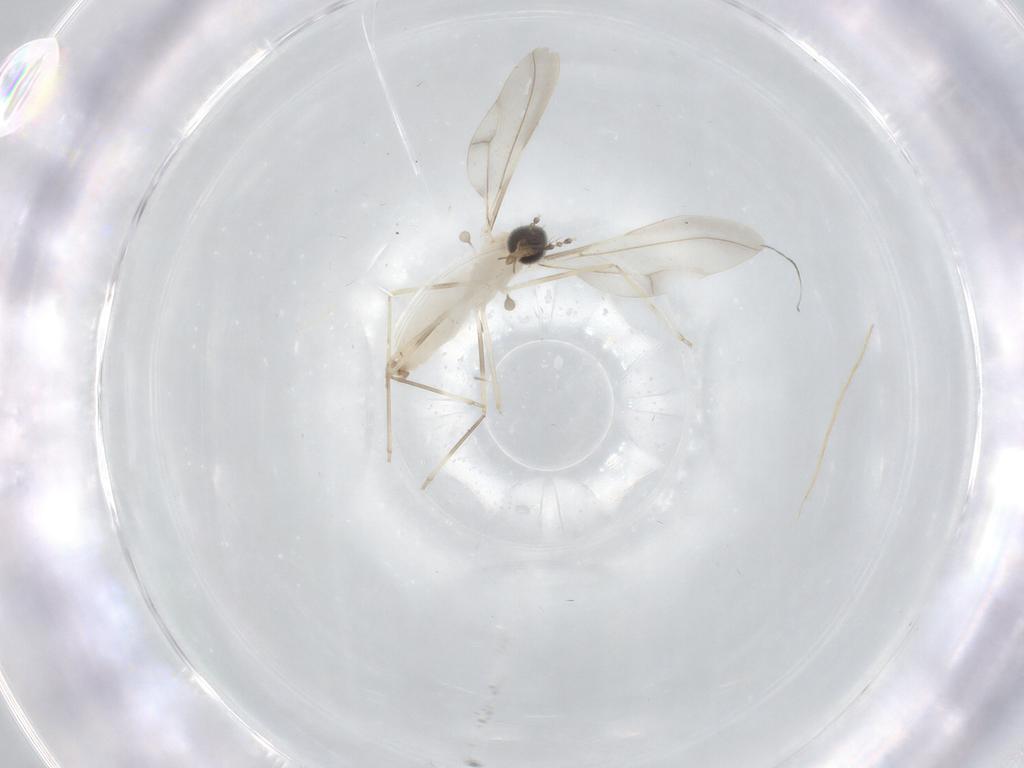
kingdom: Animalia
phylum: Arthropoda
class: Insecta
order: Diptera
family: Cecidomyiidae
